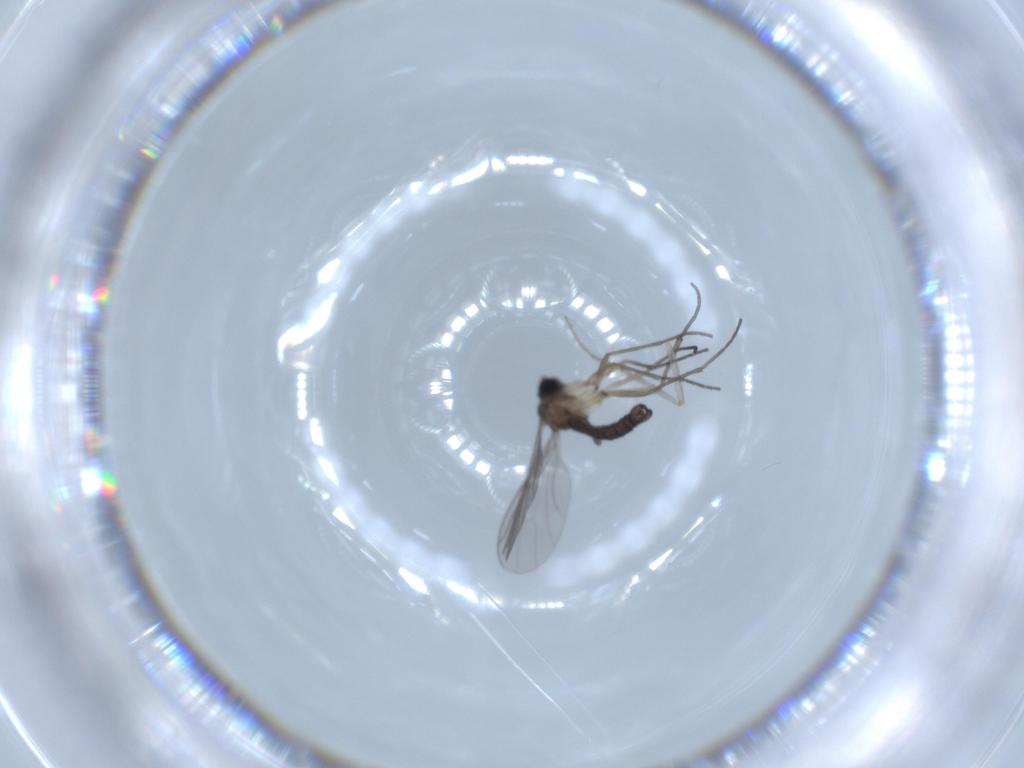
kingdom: Animalia
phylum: Arthropoda
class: Insecta
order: Diptera
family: Sciaridae
